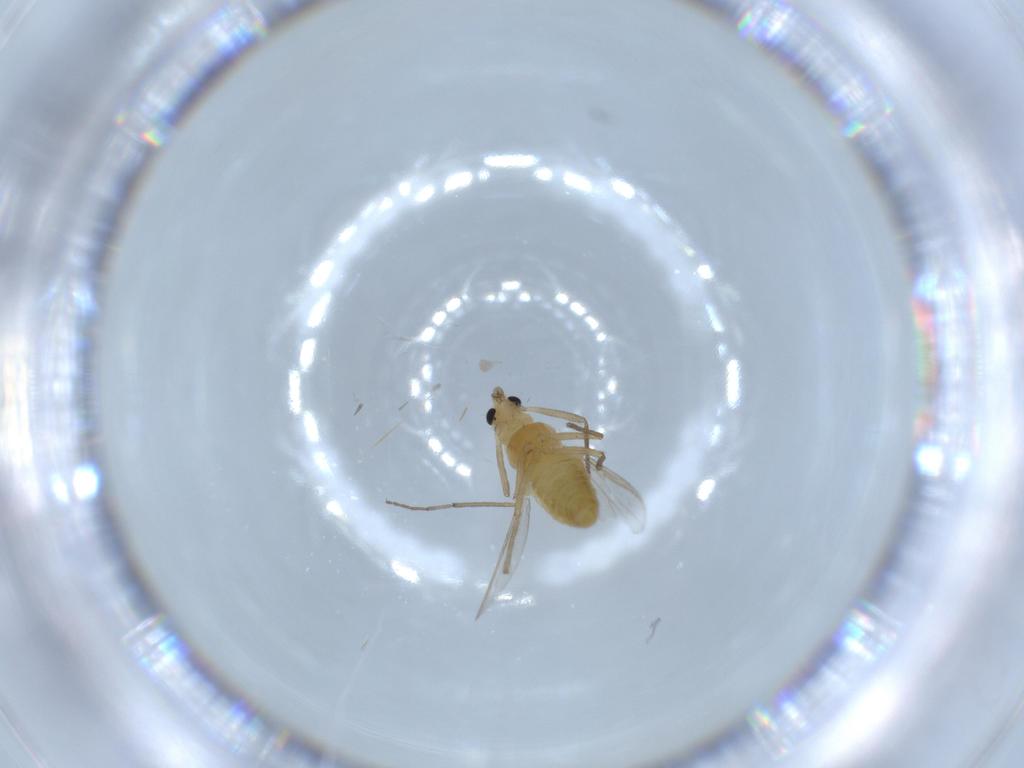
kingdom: Animalia
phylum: Arthropoda
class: Insecta
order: Diptera
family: Chironomidae
